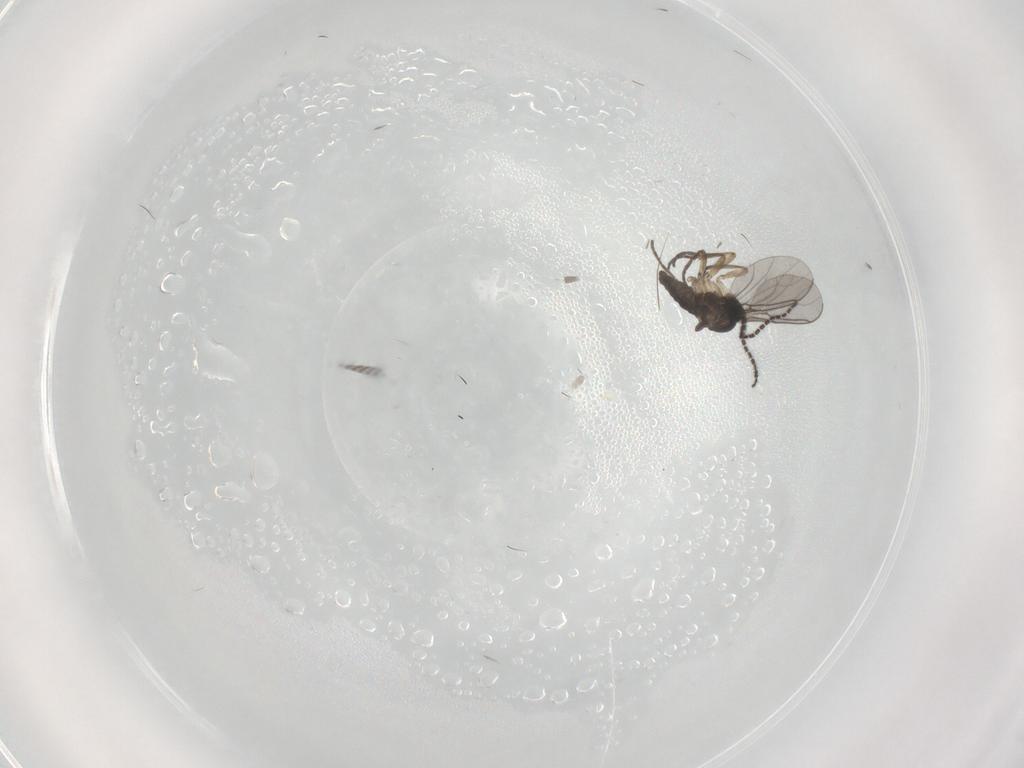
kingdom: Animalia
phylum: Arthropoda
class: Insecta
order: Diptera
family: Sciaridae
